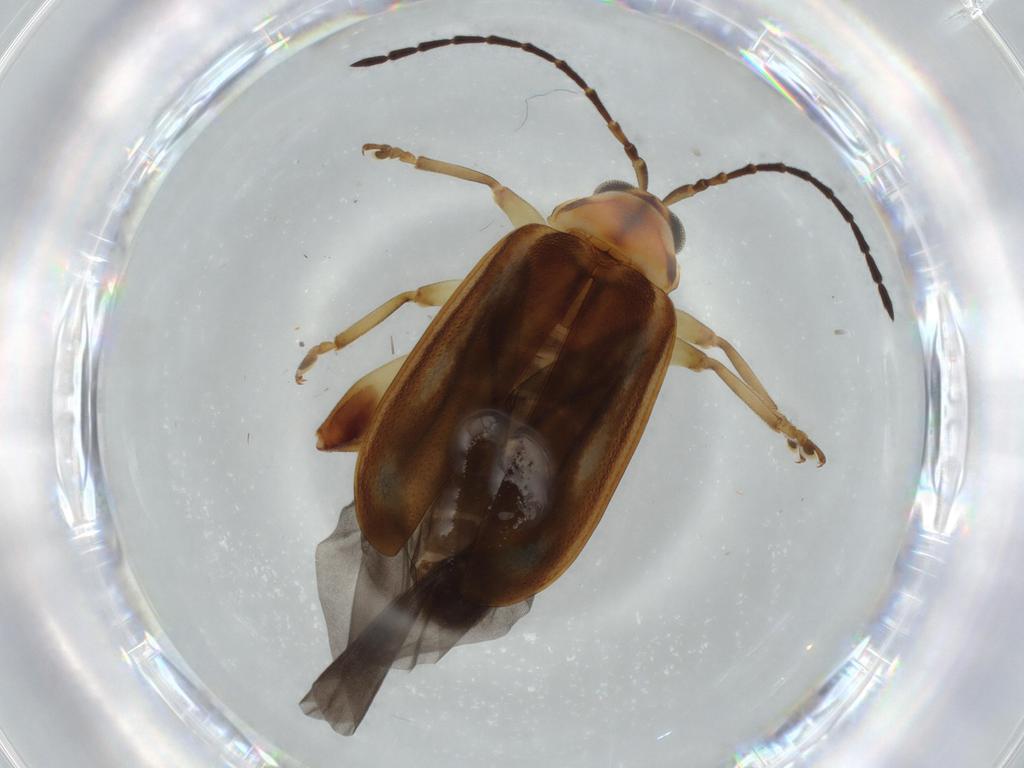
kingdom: Animalia
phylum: Arthropoda
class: Insecta
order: Coleoptera
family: Chrysomelidae
